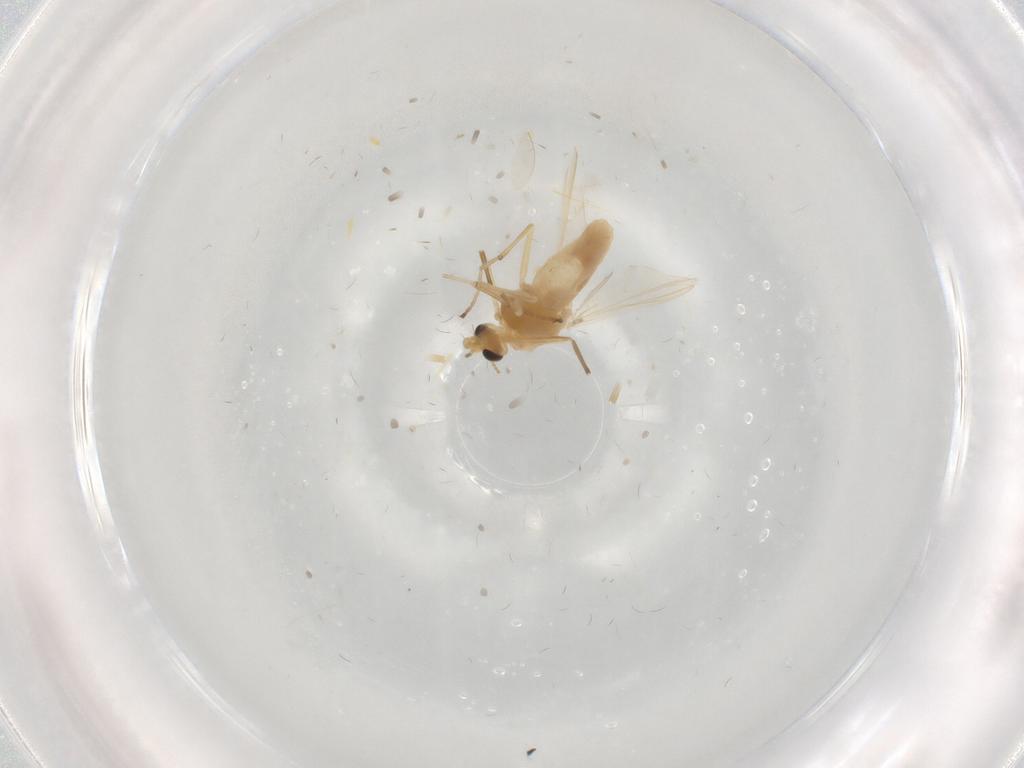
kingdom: Animalia
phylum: Arthropoda
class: Insecta
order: Diptera
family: Chironomidae
